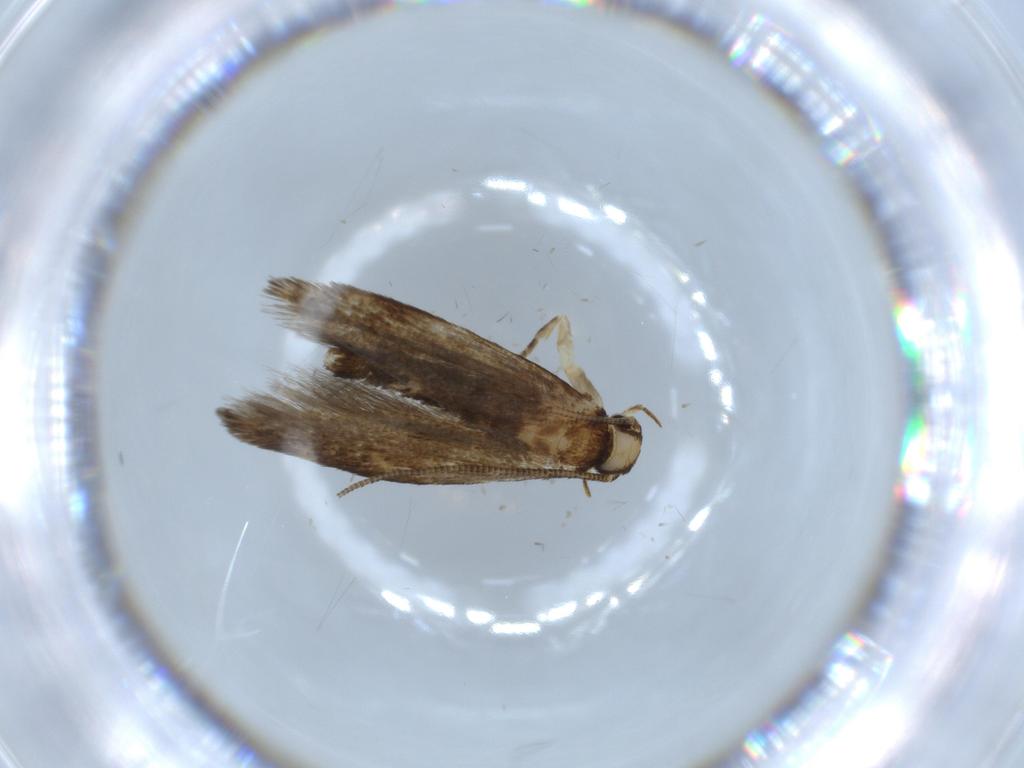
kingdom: Animalia
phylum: Arthropoda
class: Insecta
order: Lepidoptera
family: Tineidae
